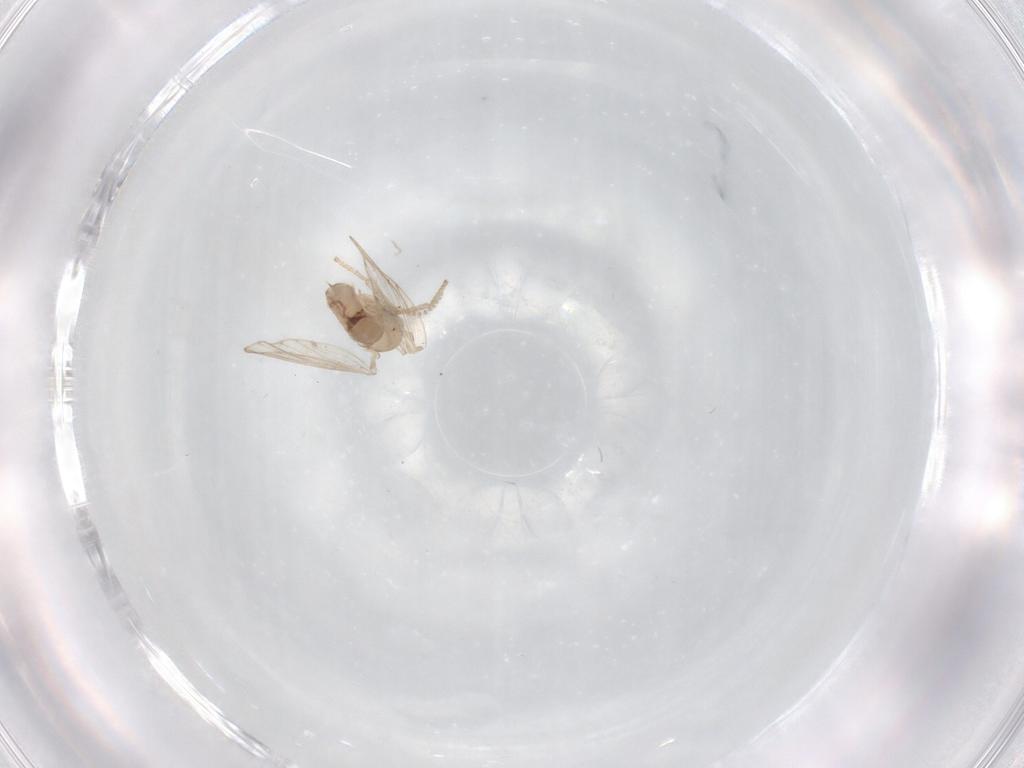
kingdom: Animalia
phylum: Arthropoda
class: Insecta
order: Diptera
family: Psychodidae
